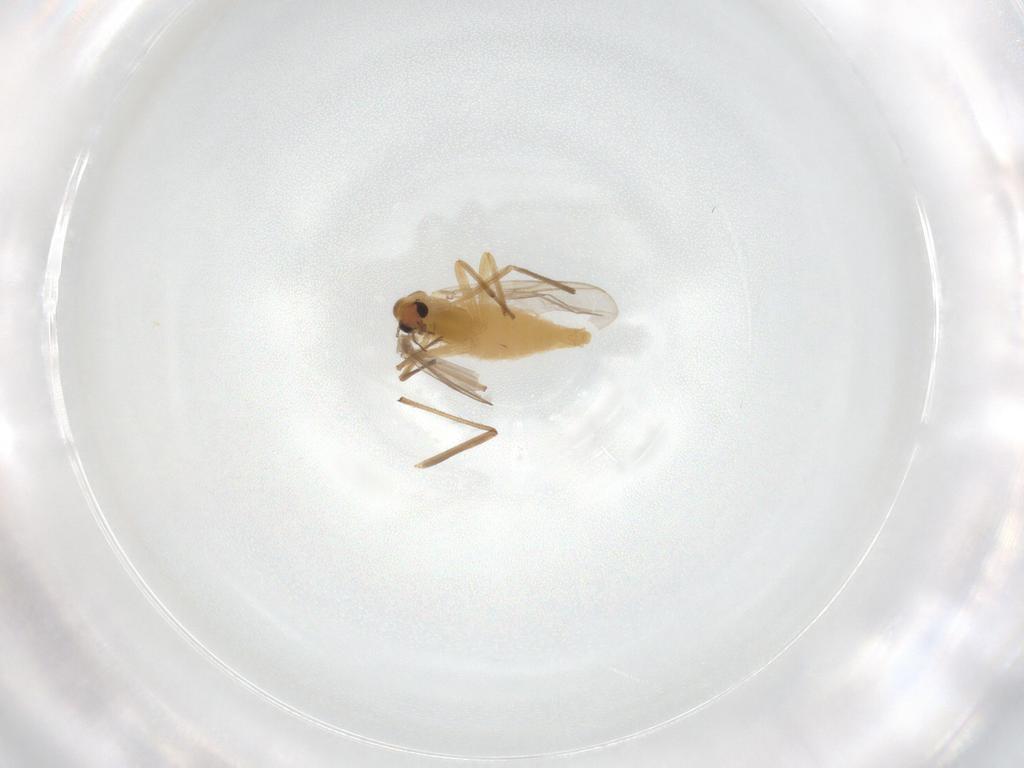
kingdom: Animalia
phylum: Arthropoda
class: Insecta
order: Diptera
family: Chironomidae
